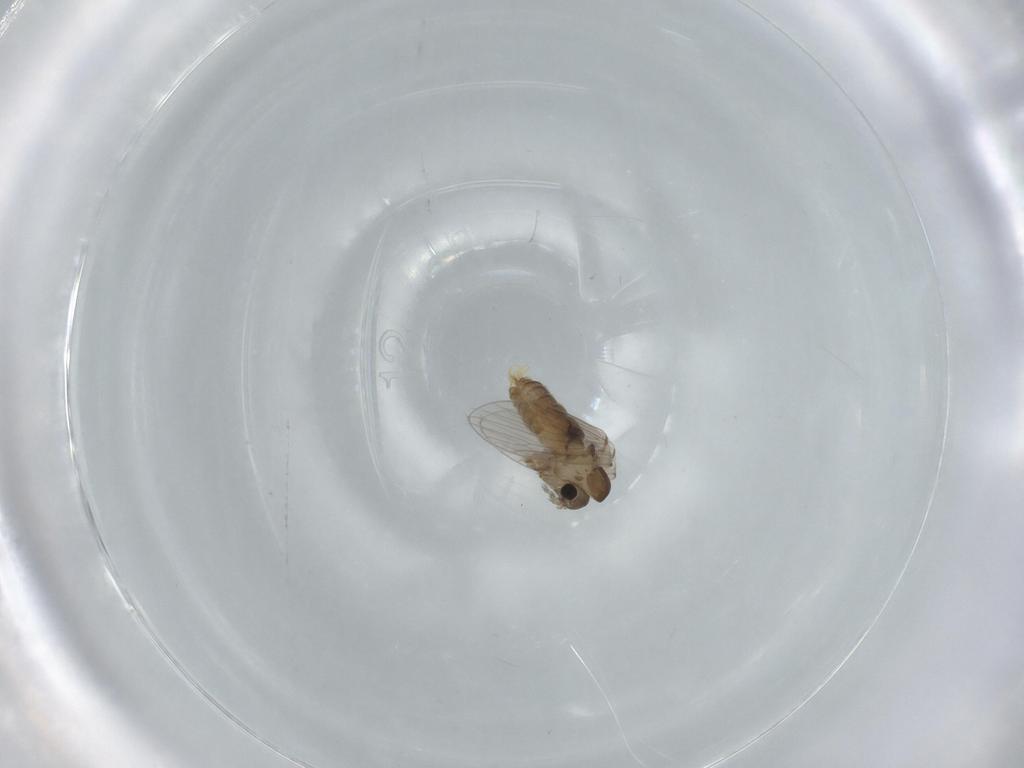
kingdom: Animalia
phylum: Arthropoda
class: Insecta
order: Diptera
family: Psychodidae
